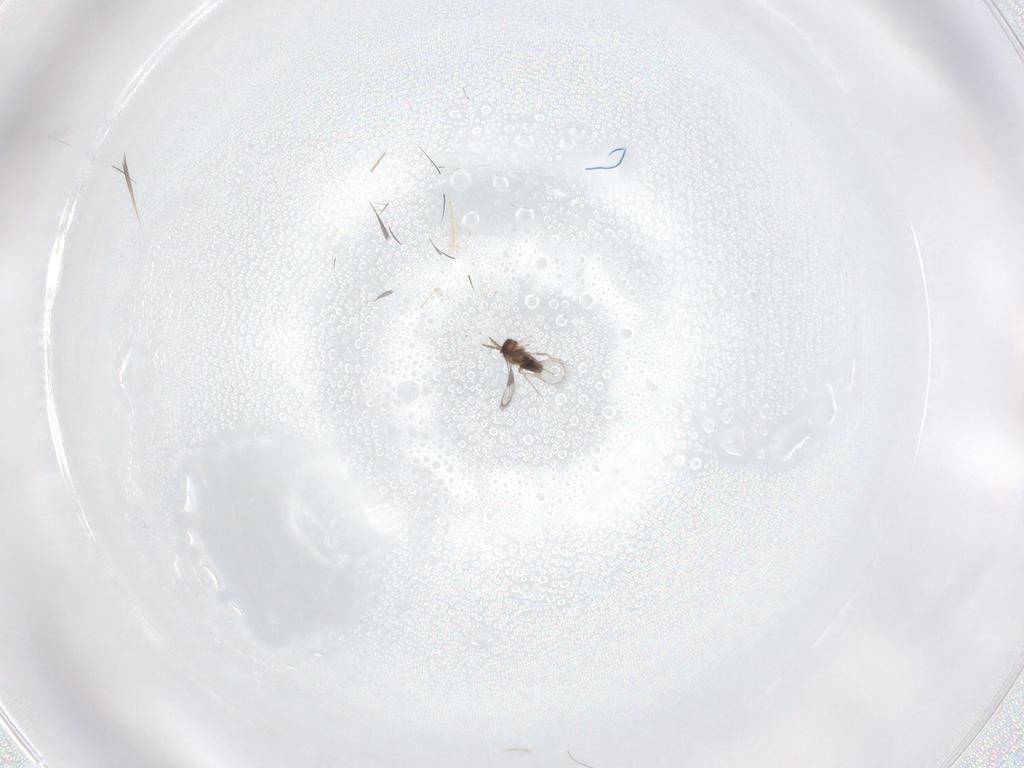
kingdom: Animalia
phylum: Arthropoda
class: Insecta
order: Hymenoptera
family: Trichogrammatidae
